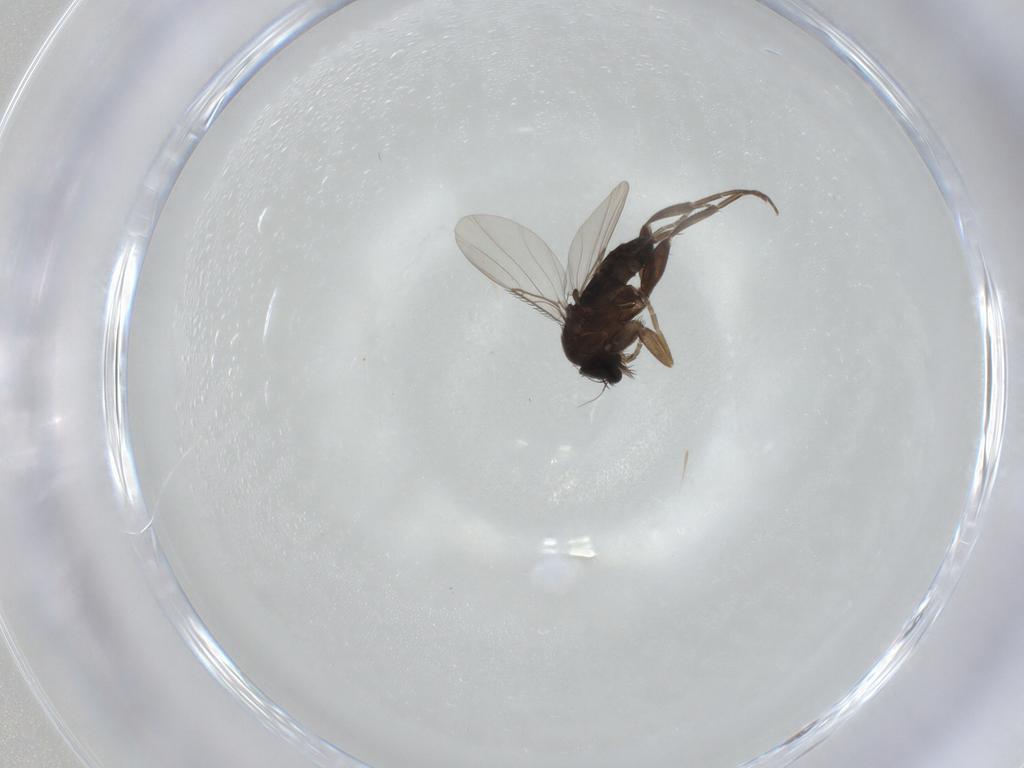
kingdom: Animalia
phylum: Arthropoda
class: Insecta
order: Diptera
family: Phoridae
